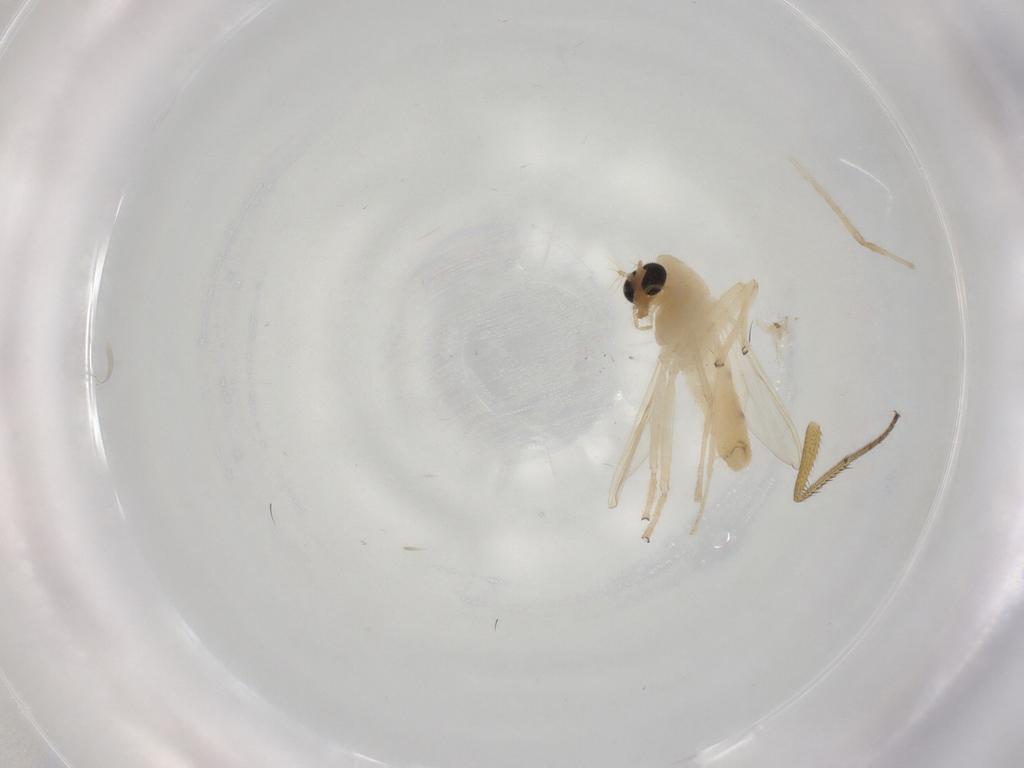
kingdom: Animalia
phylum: Arthropoda
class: Insecta
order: Diptera
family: Chironomidae
